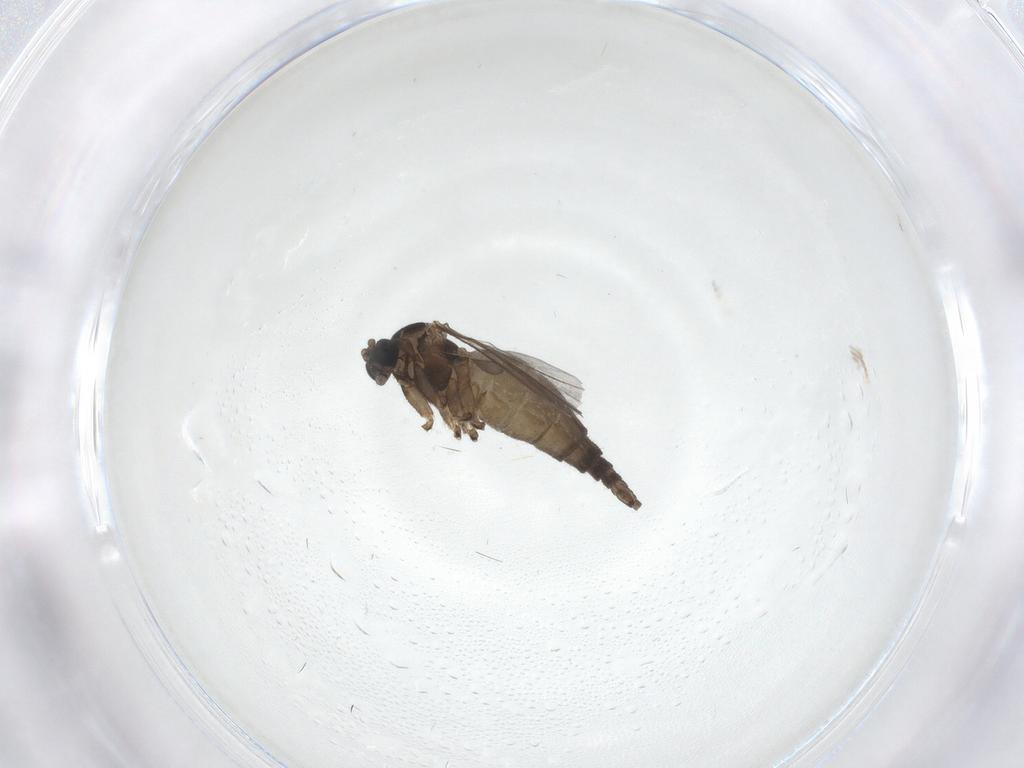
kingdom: Animalia
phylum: Arthropoda
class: Insecta
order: Diptera
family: Sciaridae
